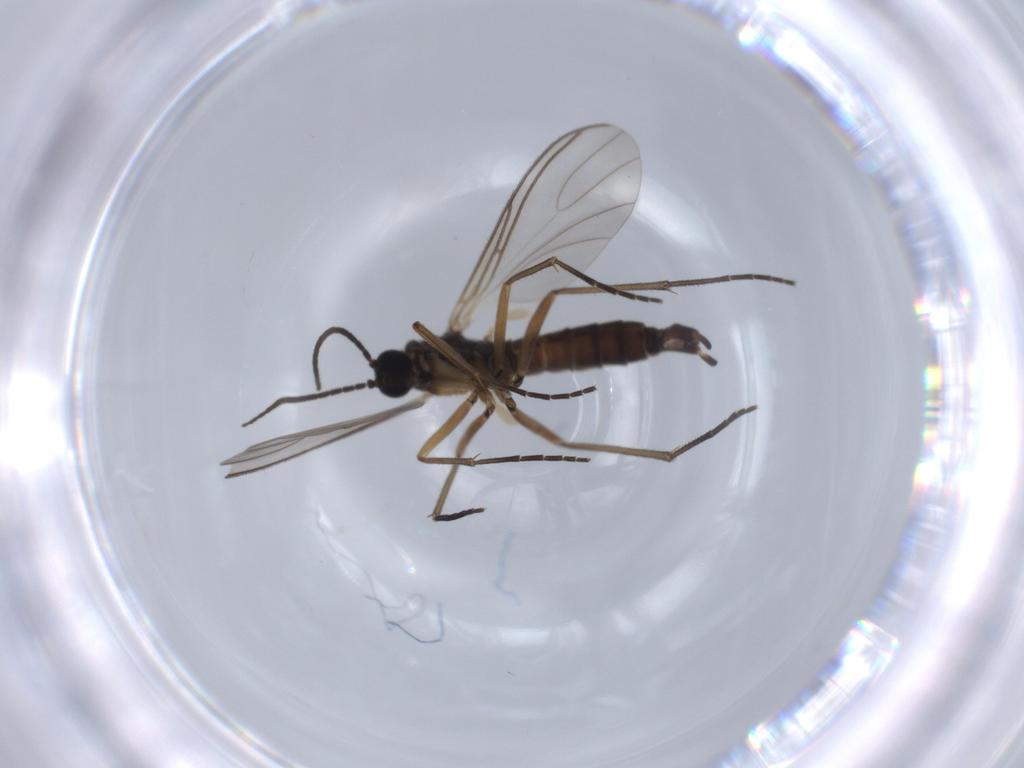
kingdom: Animalia
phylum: Arthropoda
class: Insecta
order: Diptera
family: Sciaridae
